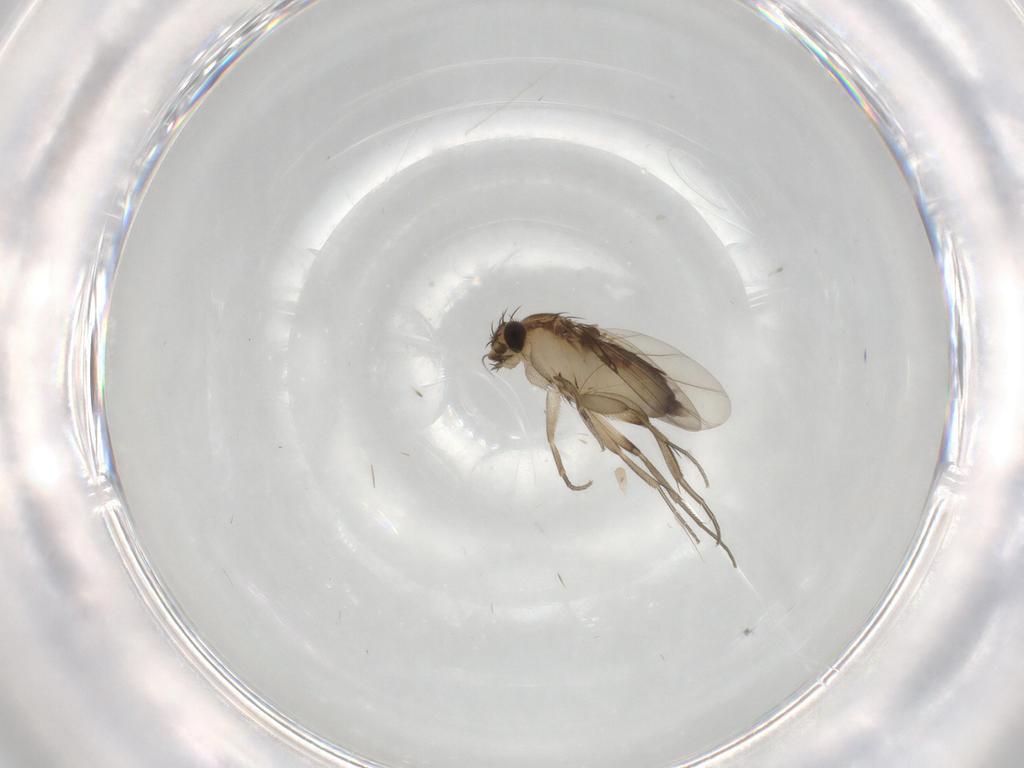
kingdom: Animalia
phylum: Arthropoda
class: Insecta
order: Diptera
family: Phoridae
